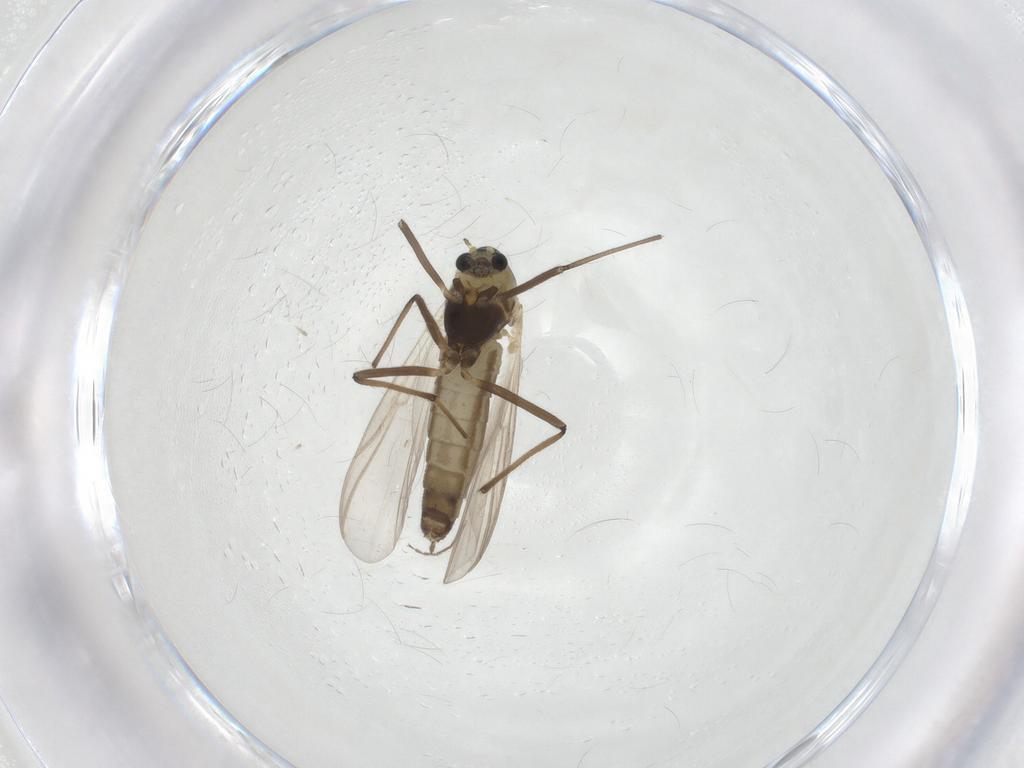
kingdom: Animalia
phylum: Arthropoda
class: Insecta
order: Diptera
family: Chironomidae
